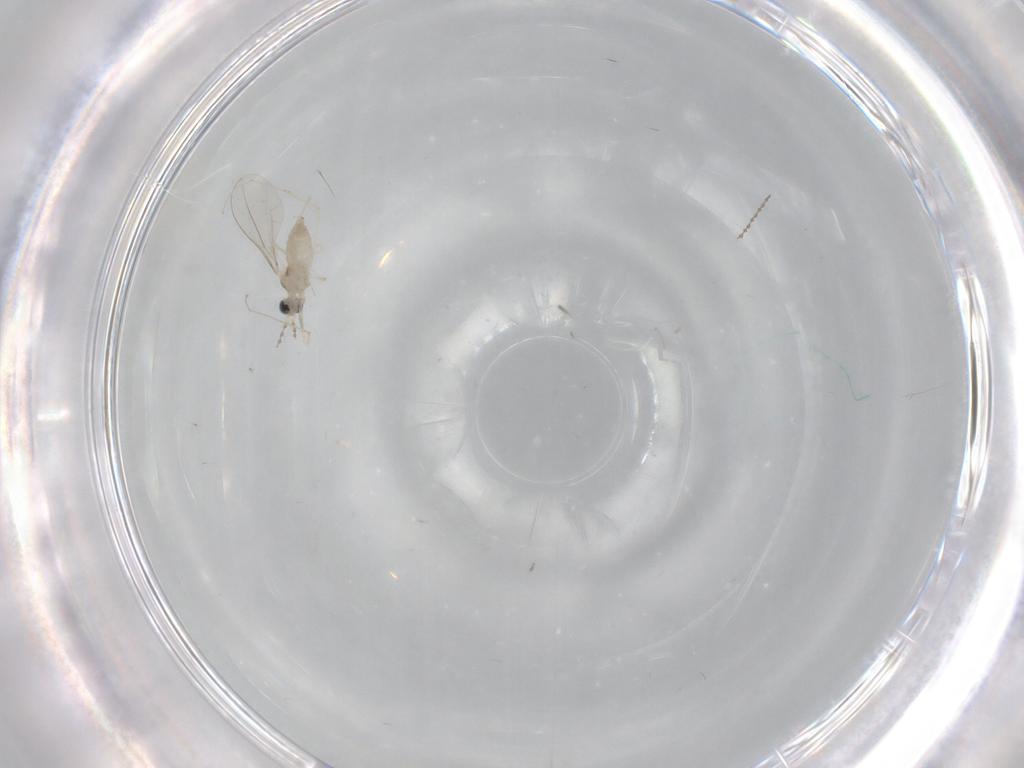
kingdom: Animalia
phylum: Arthropoda
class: Insecta
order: Diptera
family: Cecidomyiidae
